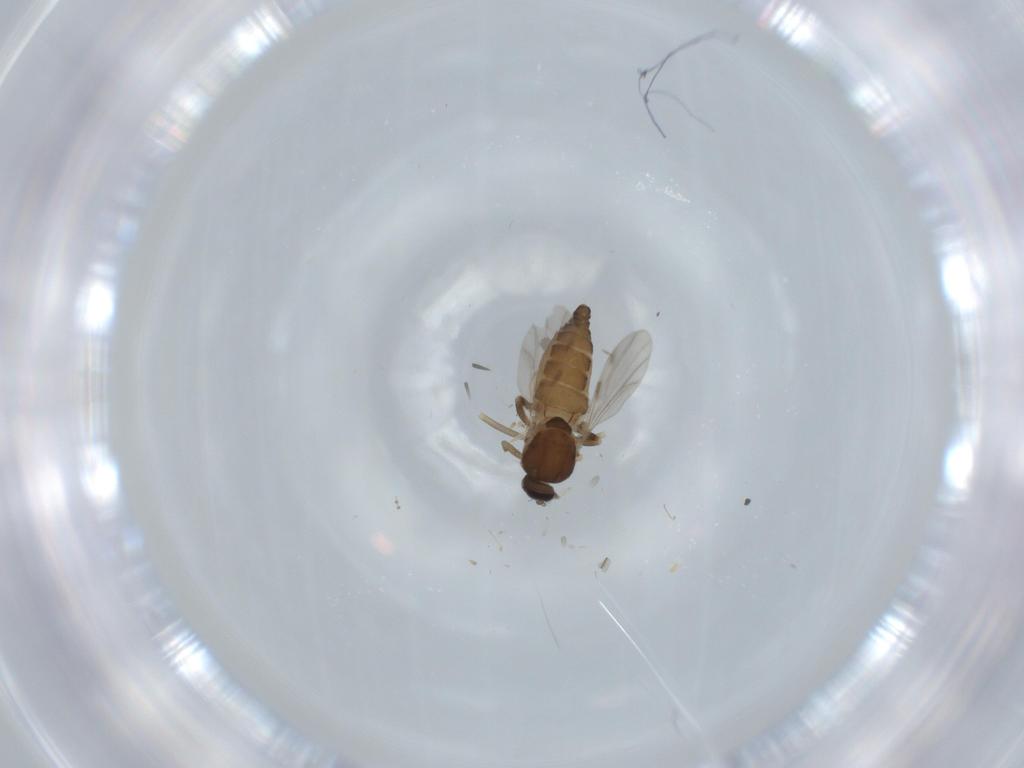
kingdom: Animalia
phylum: Arthropoda
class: Insecta
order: Diptera
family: Ceratopogonidae
